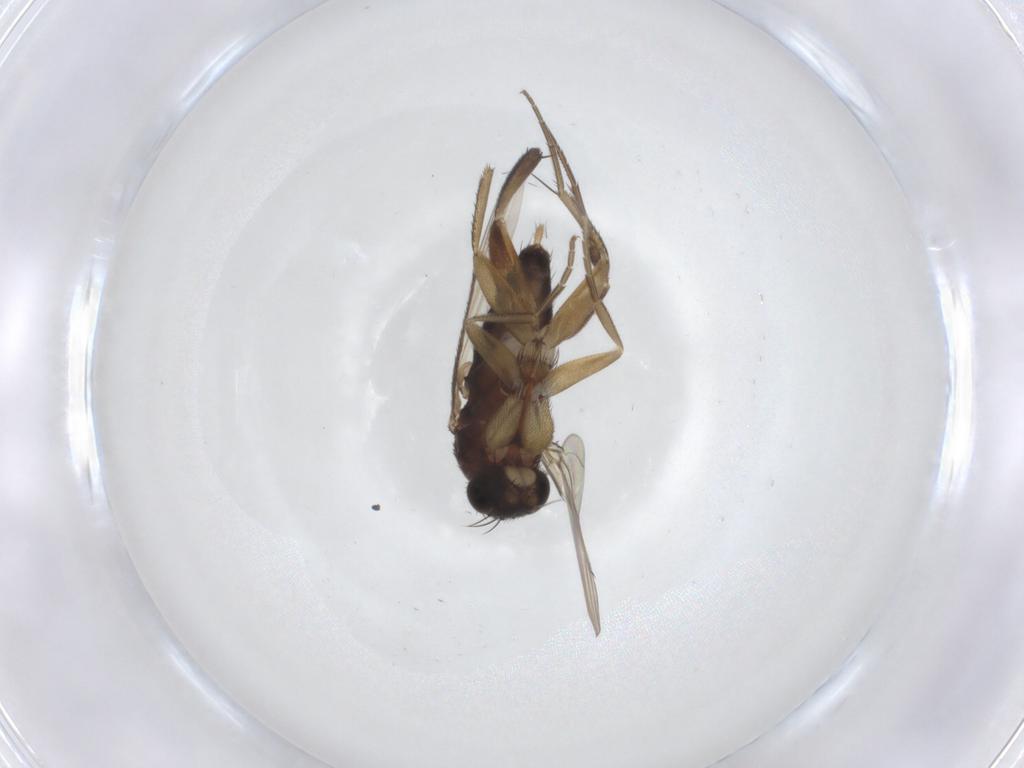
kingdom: Animalia
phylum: Arthropoda
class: Insecta
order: Diptera
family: Phoridae
